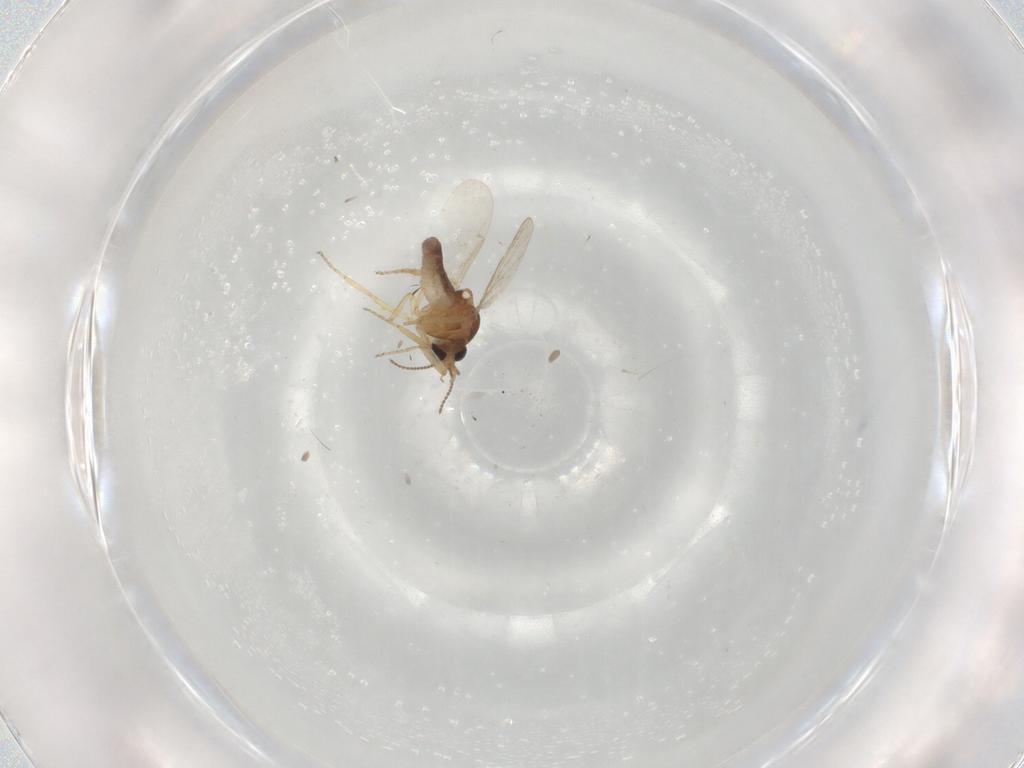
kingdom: Animalia
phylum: Arthropoda
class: Insecta
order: Diptera
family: Ceratopogonidae
